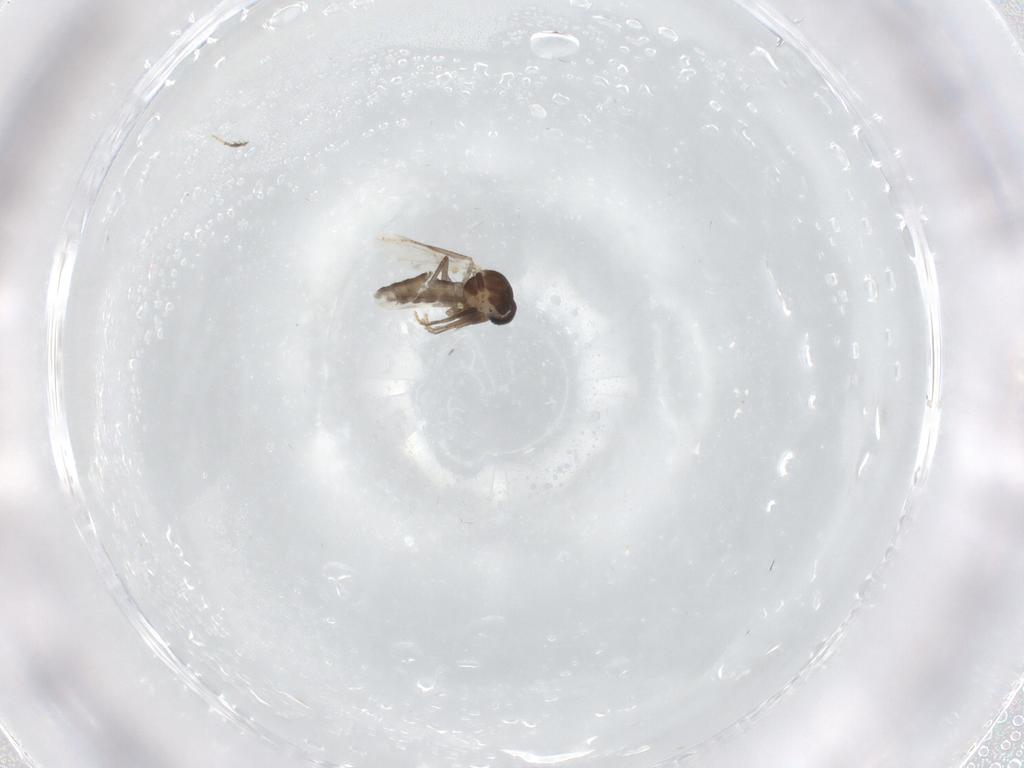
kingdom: Animalia
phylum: Arthropoda
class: Insecta
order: Diptera
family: Ceratopogonidae
